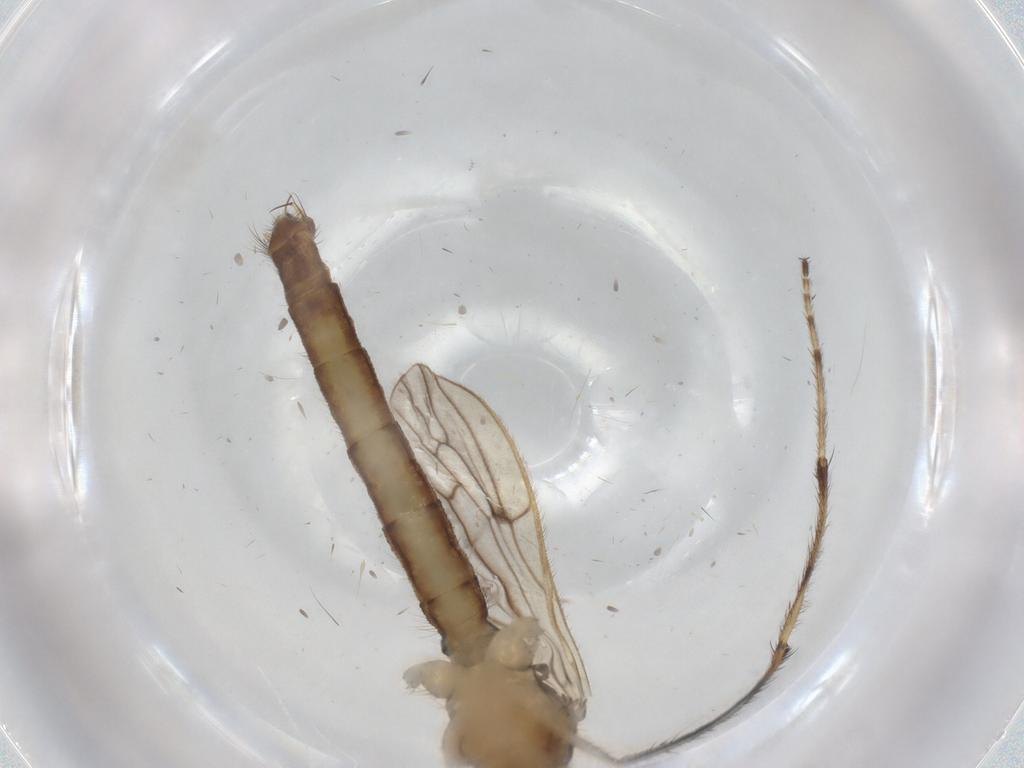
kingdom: Animalia
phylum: Arthropoda
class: Insecta
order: Diptera
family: Limoniidae
